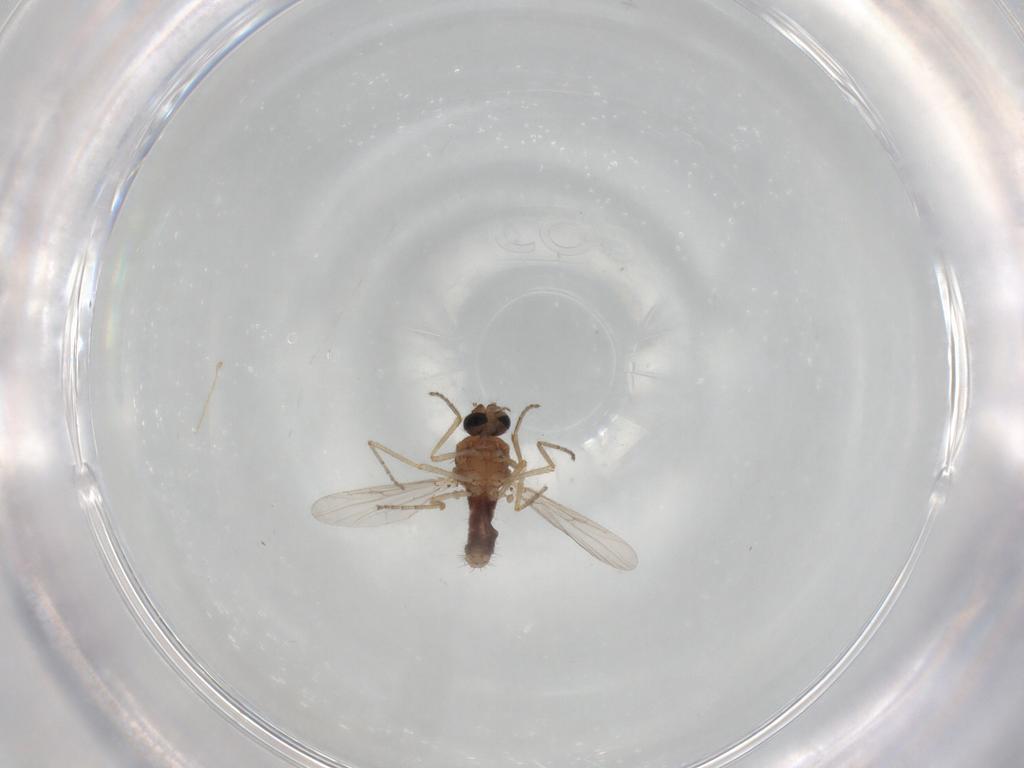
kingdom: Animalia
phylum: Arthropoda
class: Insecta
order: Diptera
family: Ceratopogonidae
